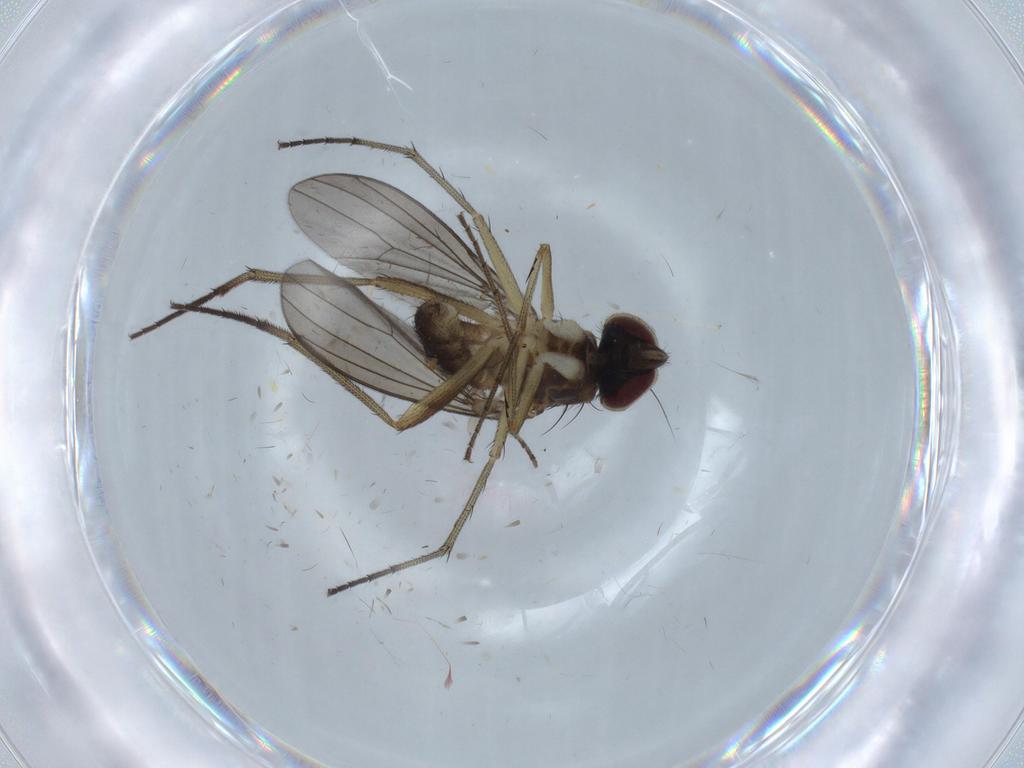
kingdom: Animalia
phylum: Arthropoda
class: Insecta
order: Diptera
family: Dolichopodidae
